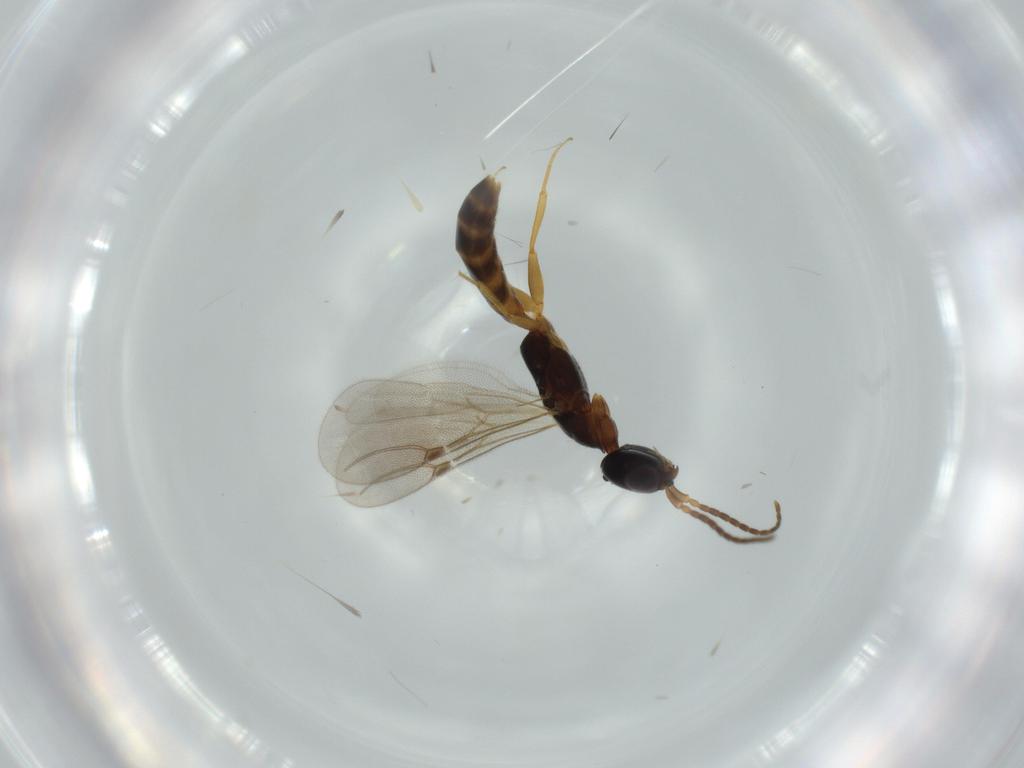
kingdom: Animalia
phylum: Arthropoda
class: Insecta
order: Hymenoptera
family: Bethylidae
